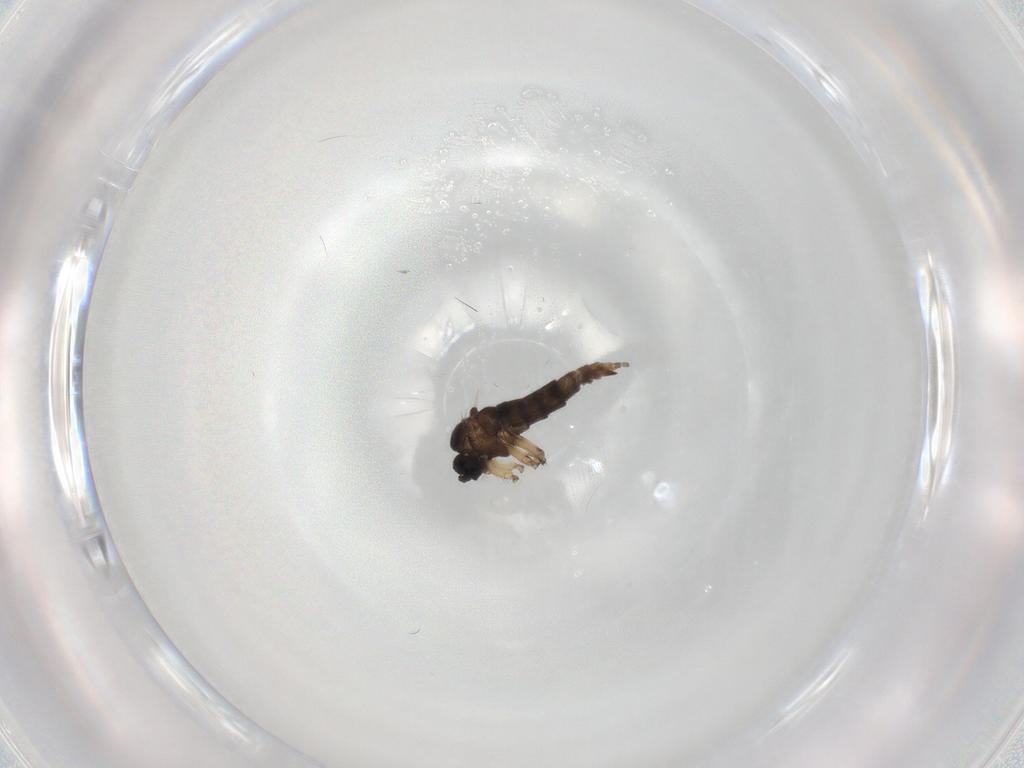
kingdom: Animalia
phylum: Arthropoda
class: Insecta
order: Diptera
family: Sciaridae
